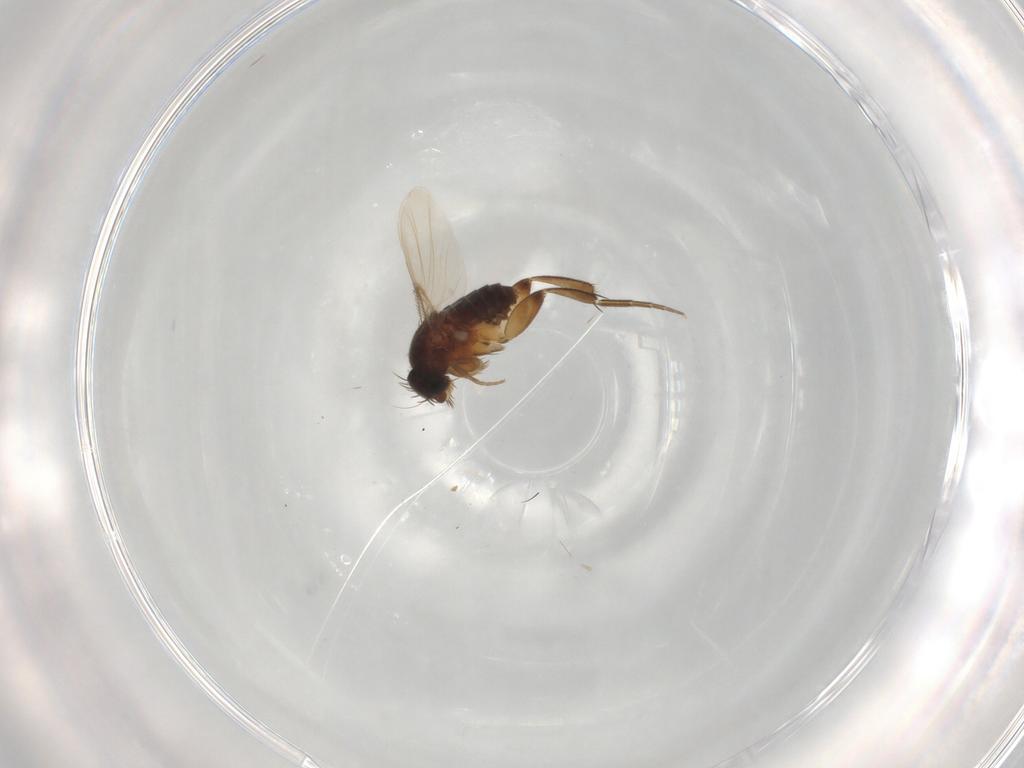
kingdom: Animalia
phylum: Arthropoda
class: Insecta
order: Diptera
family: Phoridae
